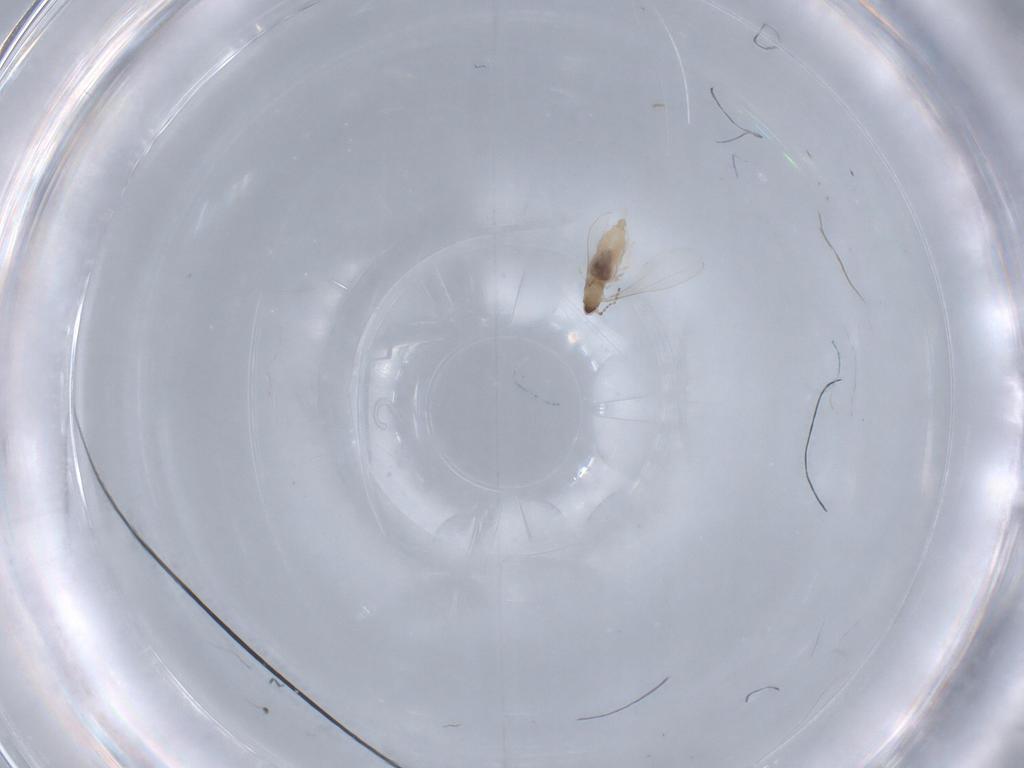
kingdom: Animalia
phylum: Arthropoda
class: Insecta
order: Diptera
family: Cecidomyiidae
